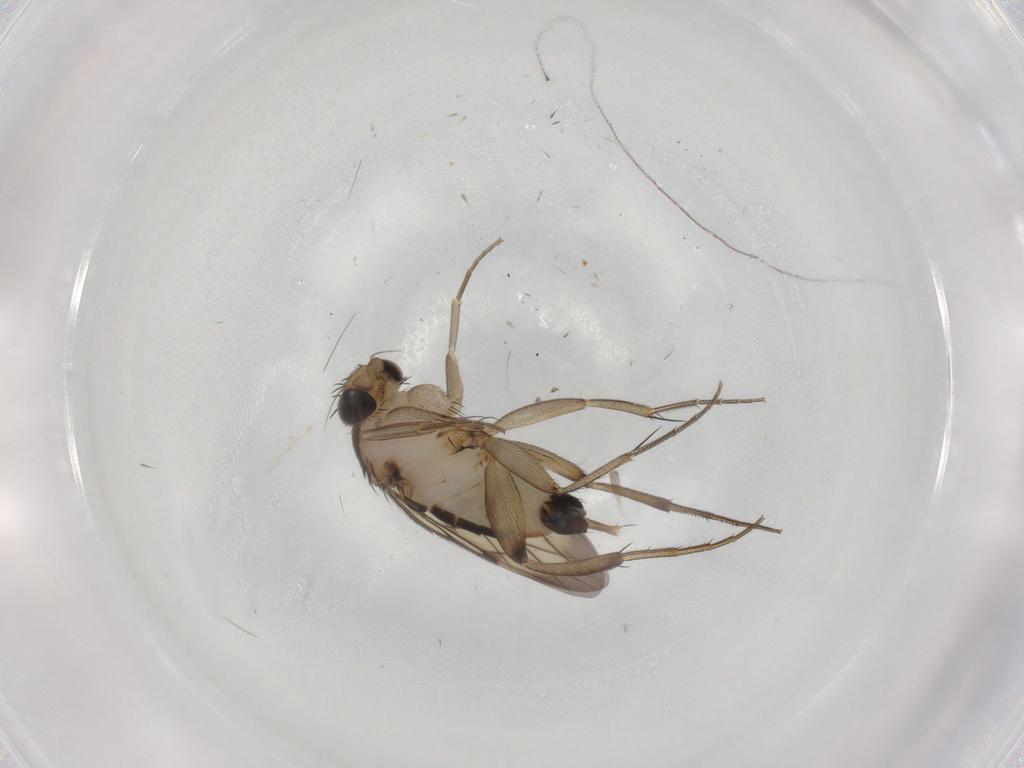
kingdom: Animalia
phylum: Arthropoda
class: Insecta
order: Diptera
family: Phoridae
